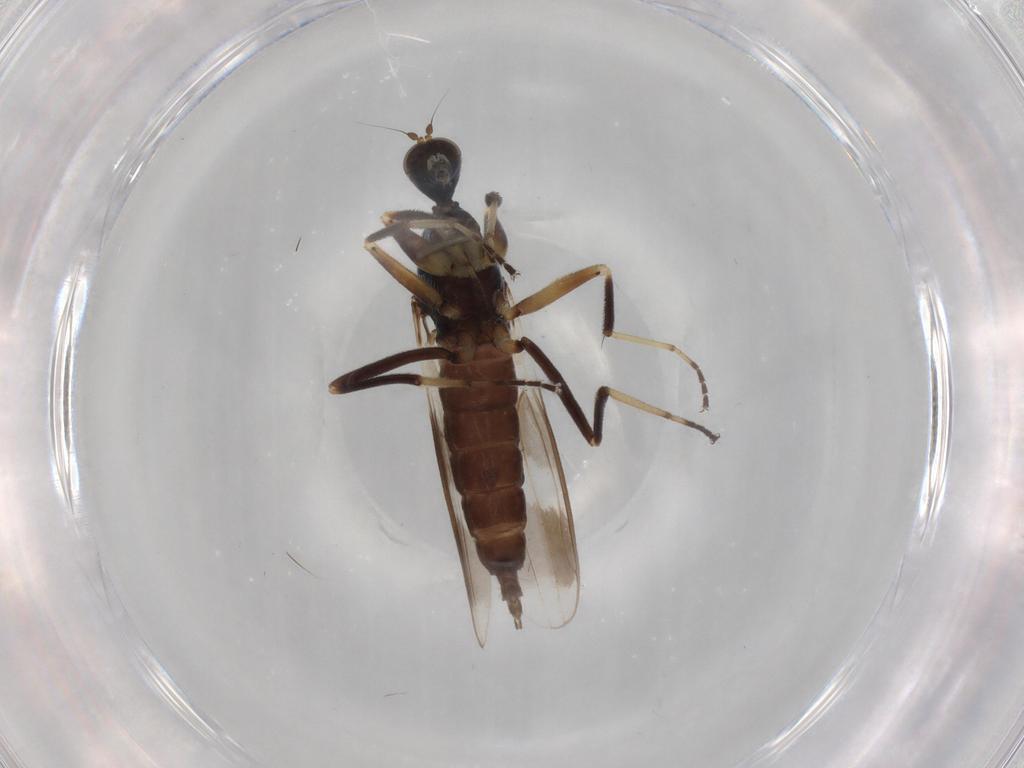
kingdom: Animalia
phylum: Arthropoda
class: Insecta
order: Diptera
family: Hybotidae
